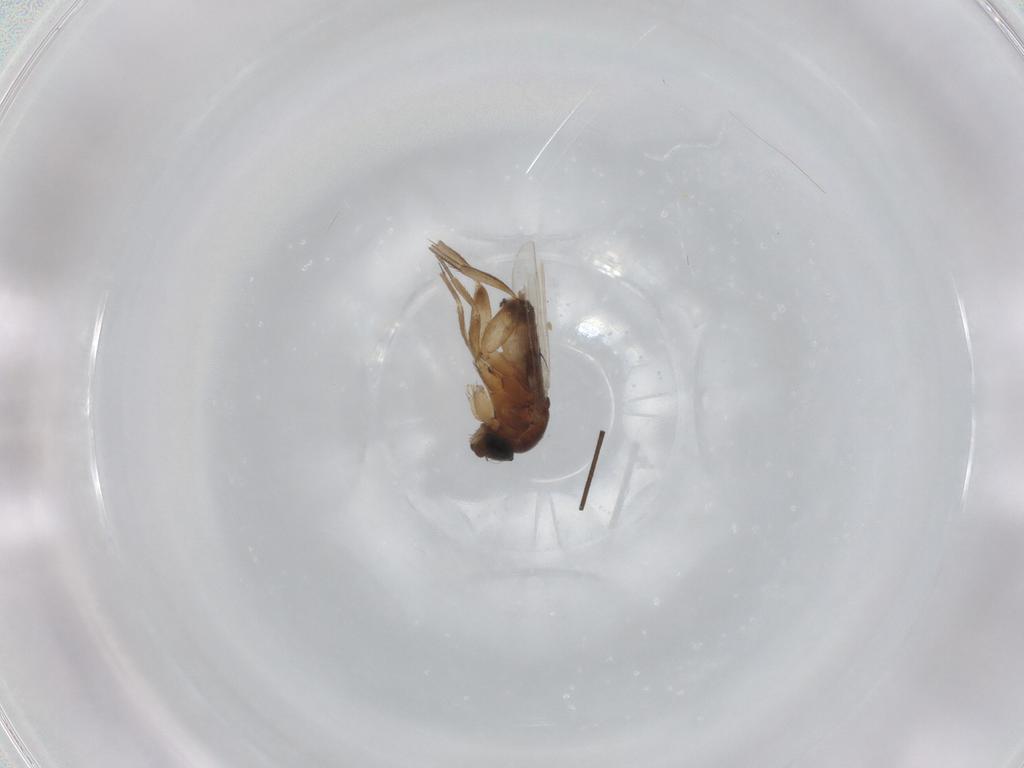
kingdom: Animalia
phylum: Arthropoda
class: Insecta
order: Diptera
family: Phoridae
